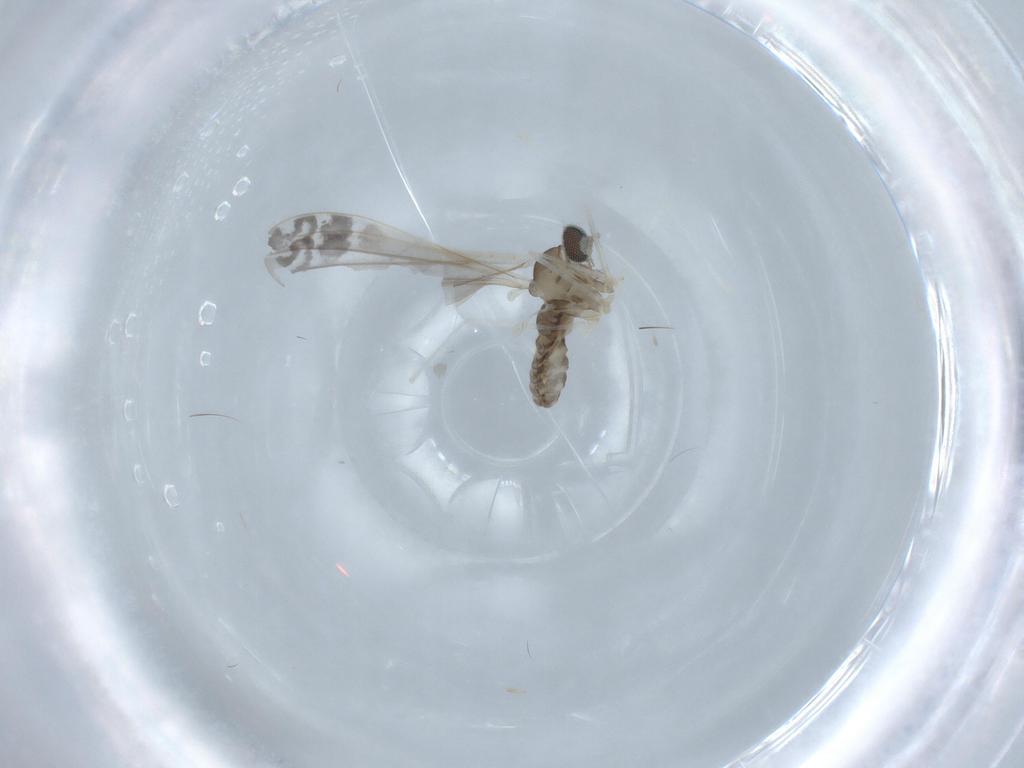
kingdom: Animalia
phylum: Arthropoda
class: Insecta
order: Diptera
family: Cecidomyiidae
